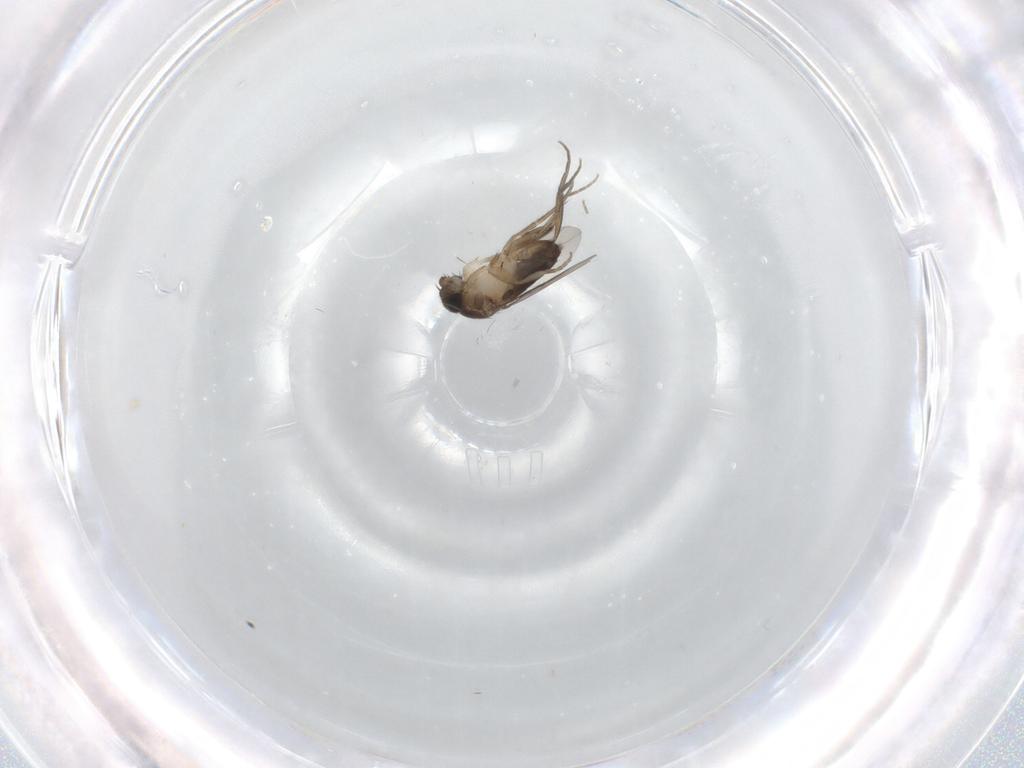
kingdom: Animalia
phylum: Arthropoda
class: Insecta
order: Diptera
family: Phoridae
